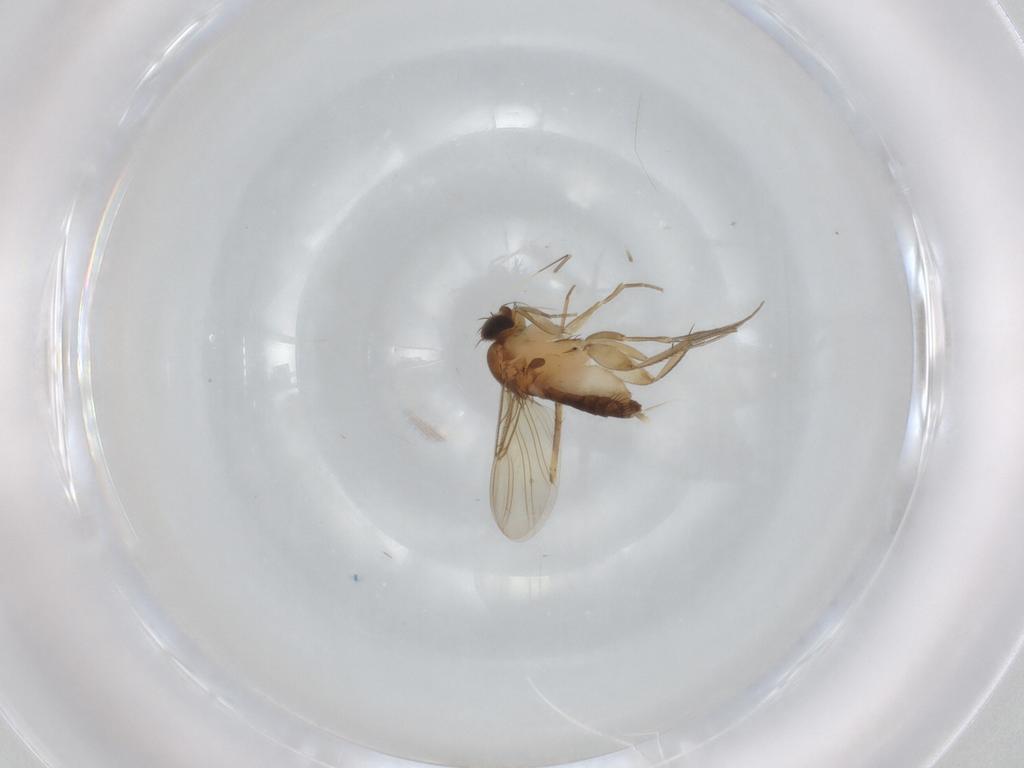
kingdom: Animalia
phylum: Arthropoda
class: Insecta
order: Diptera
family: Phoridae
